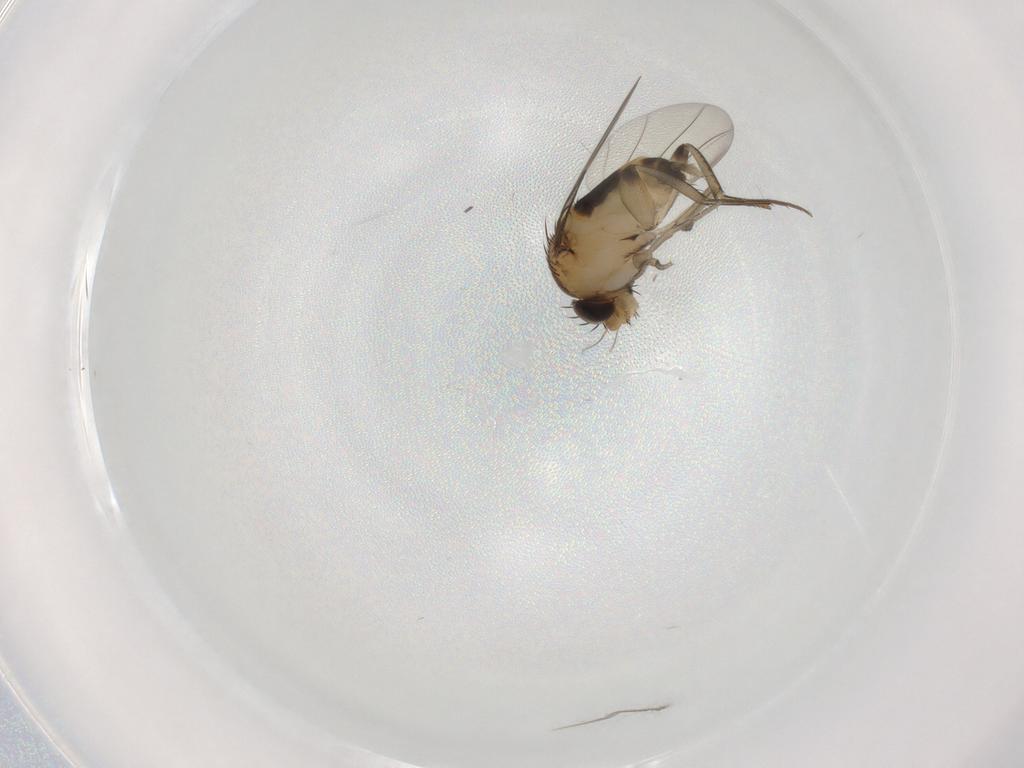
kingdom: Animalia
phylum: Arthropoda
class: Insecta
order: Diptera
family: Phoridae
